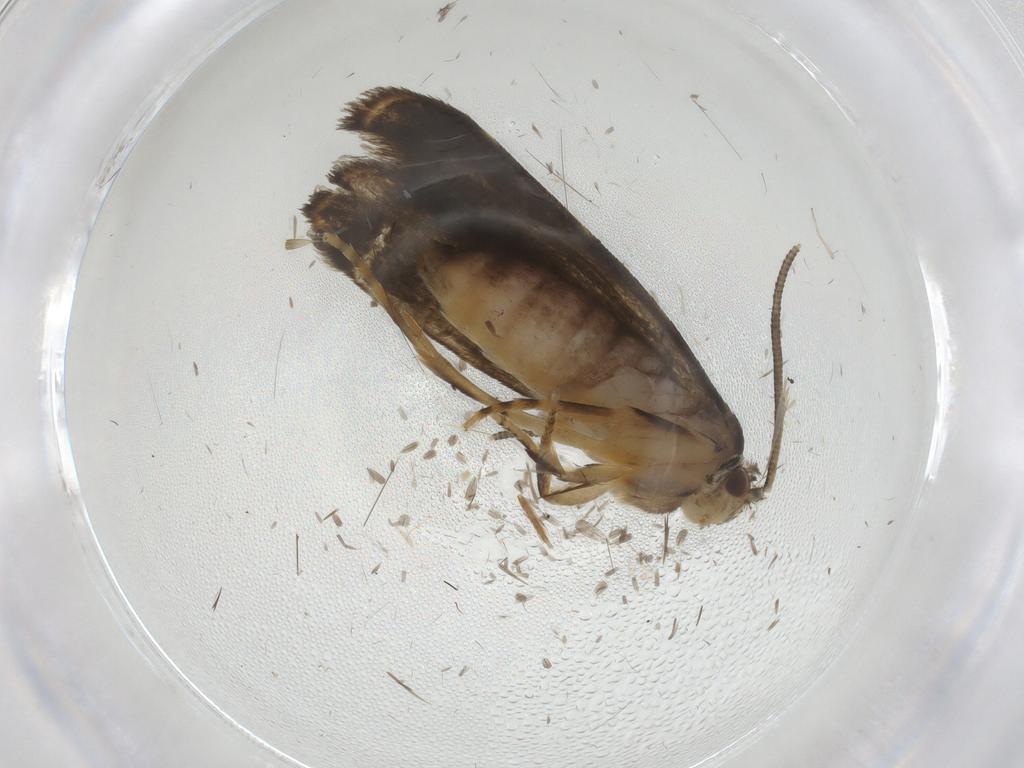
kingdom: Animalia
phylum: Arthropoda
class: Insecta
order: Lepidoptera
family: Dryadaulidae
